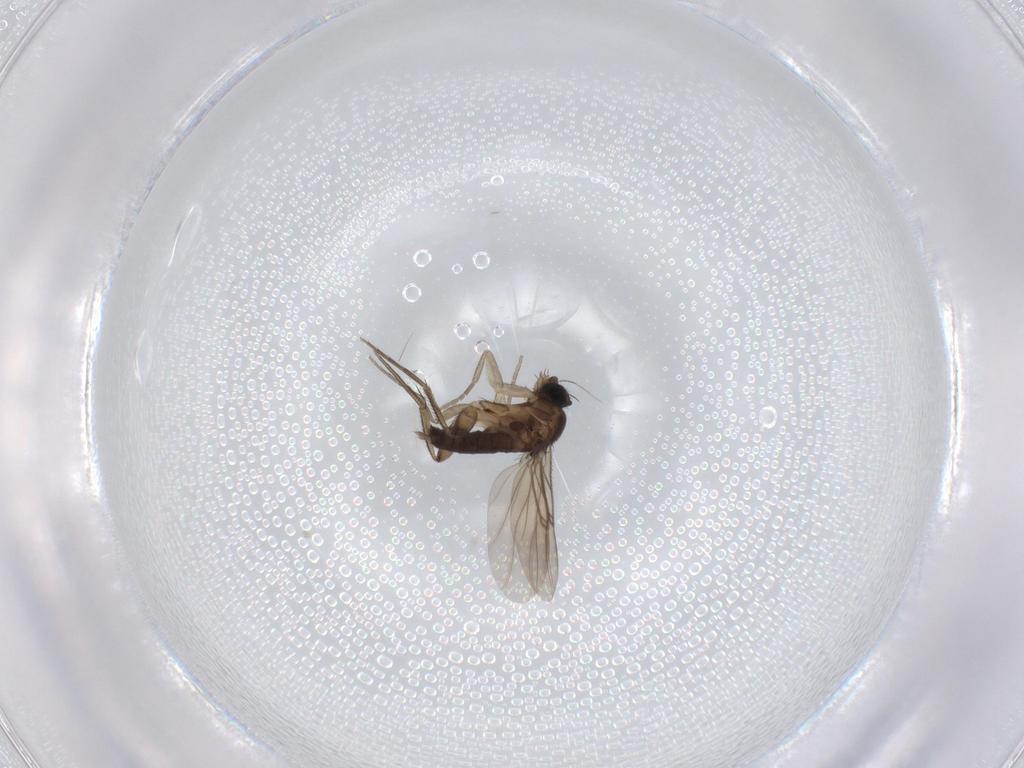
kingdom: Animalia
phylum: Arthropoda
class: Insecta
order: Diptera
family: Phoridae
